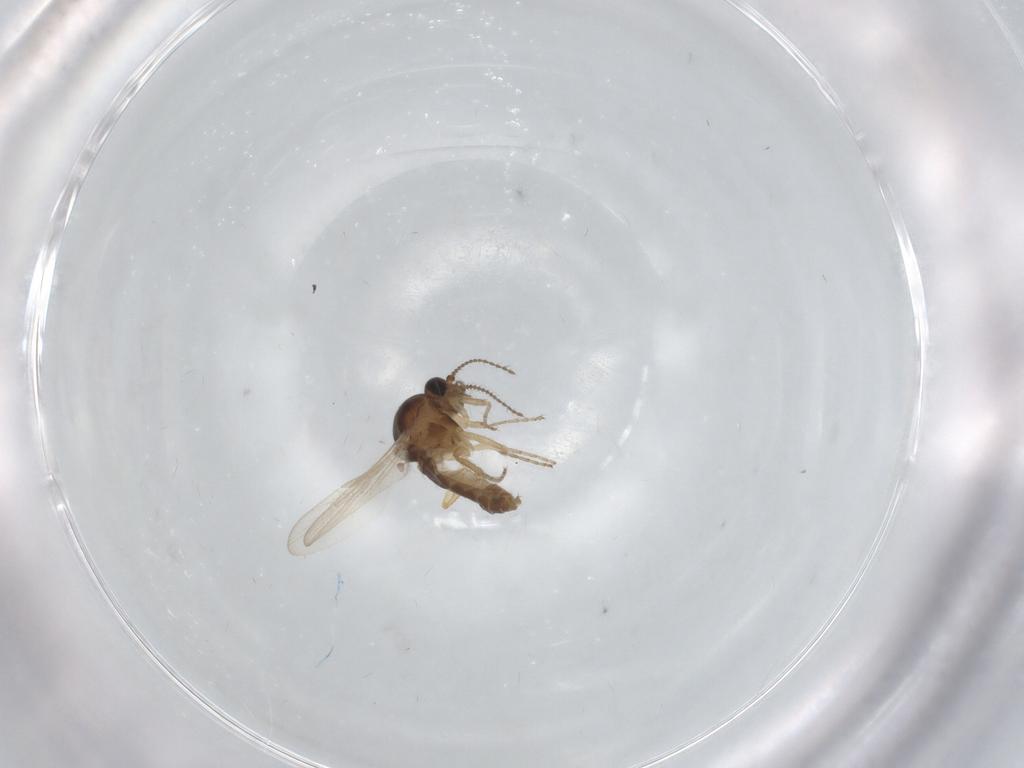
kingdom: Animalia
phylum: Arthropoda
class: Insecta
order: Diptera
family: Ceratopogonidae
